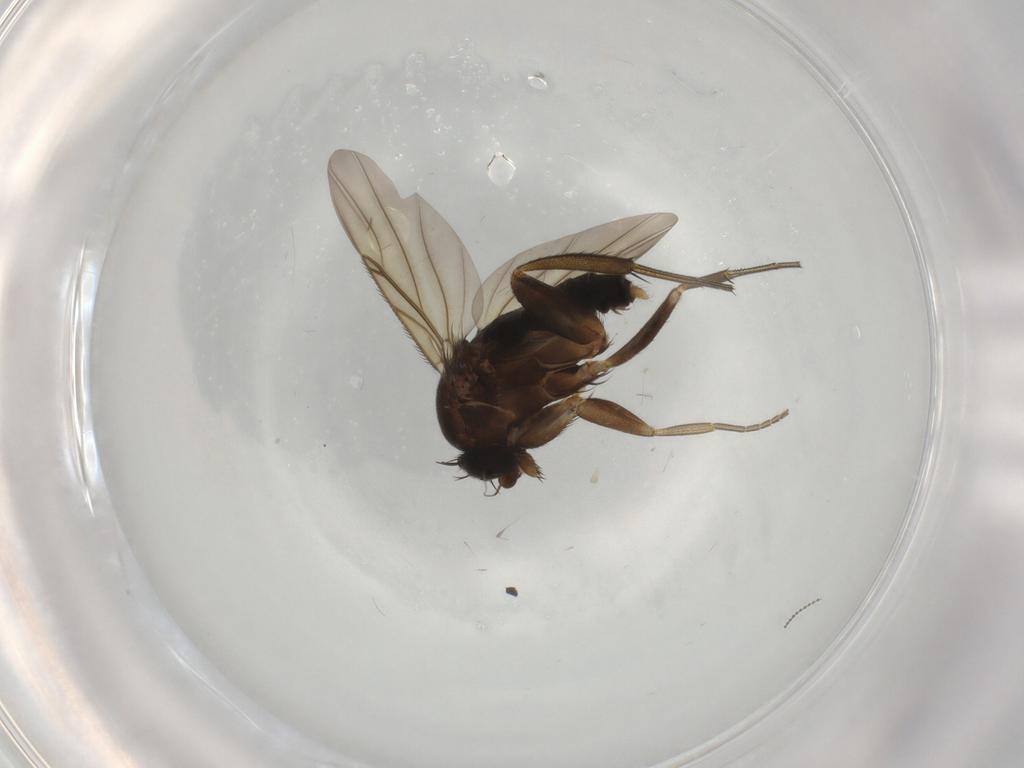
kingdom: Animalia
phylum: Arthropoda
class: Insecta
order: Diptera
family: Phoridae
